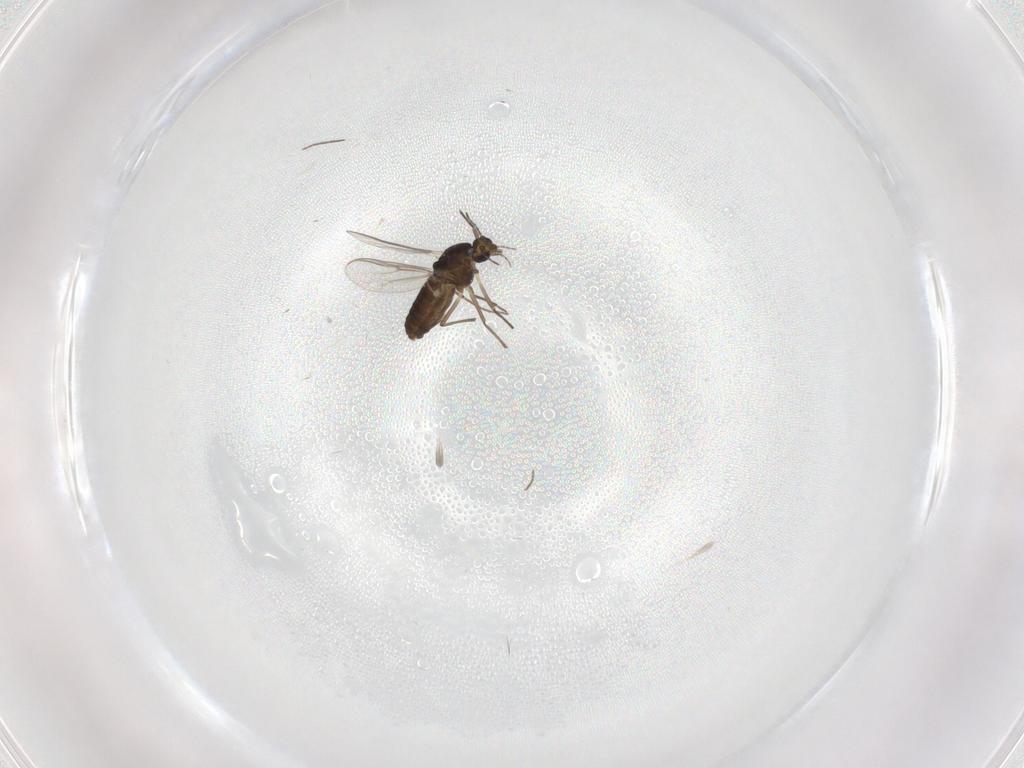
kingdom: Animalia
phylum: Arthropoda
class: Insecta
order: Diptera
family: Chironomidae
